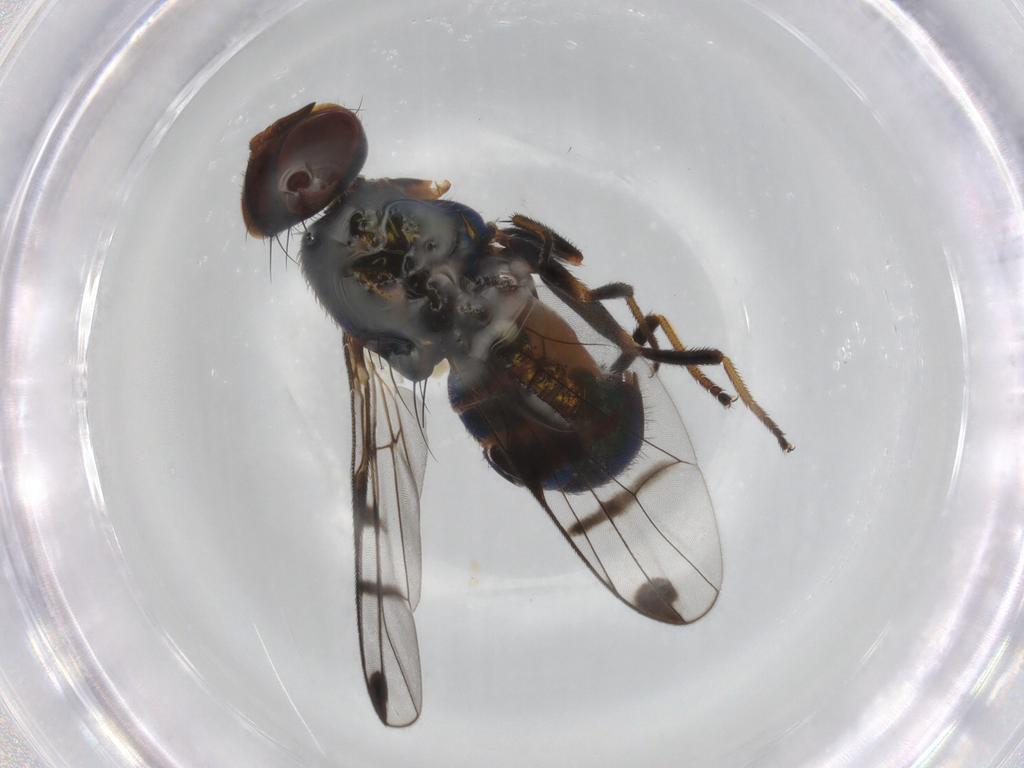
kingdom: Animalia
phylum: Arthropoda
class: Insecta
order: Diptera
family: Platystomatidae
